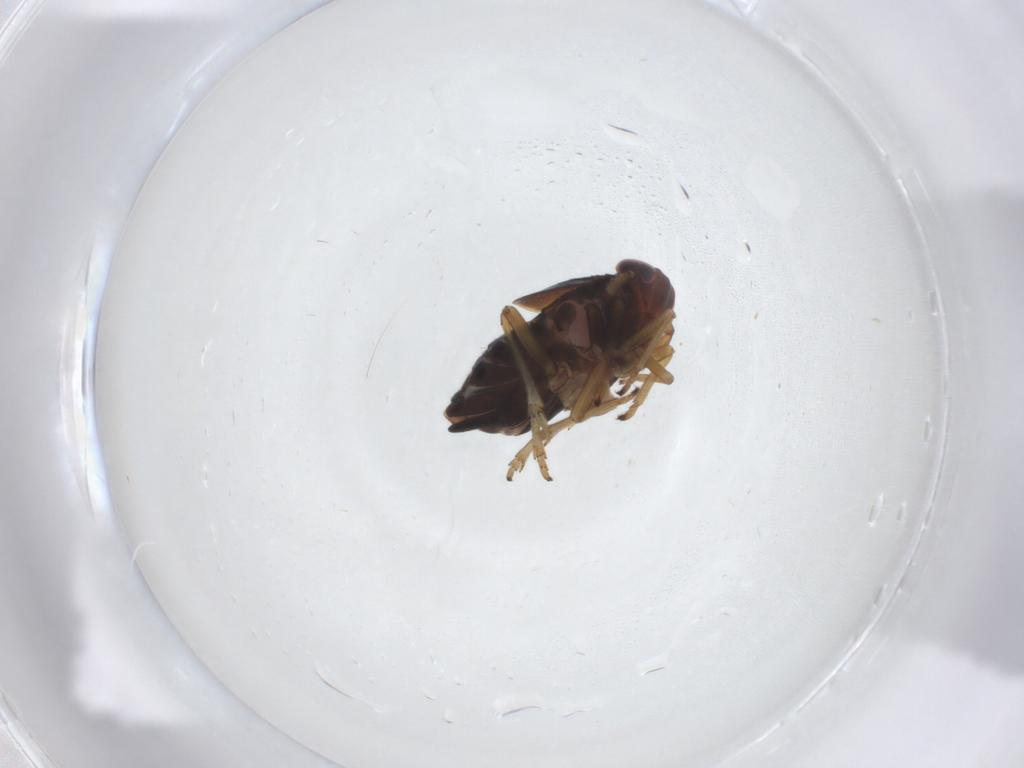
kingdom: Animalia
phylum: Arthropoda
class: Insecta
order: Hemiptera
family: Delphacidae
